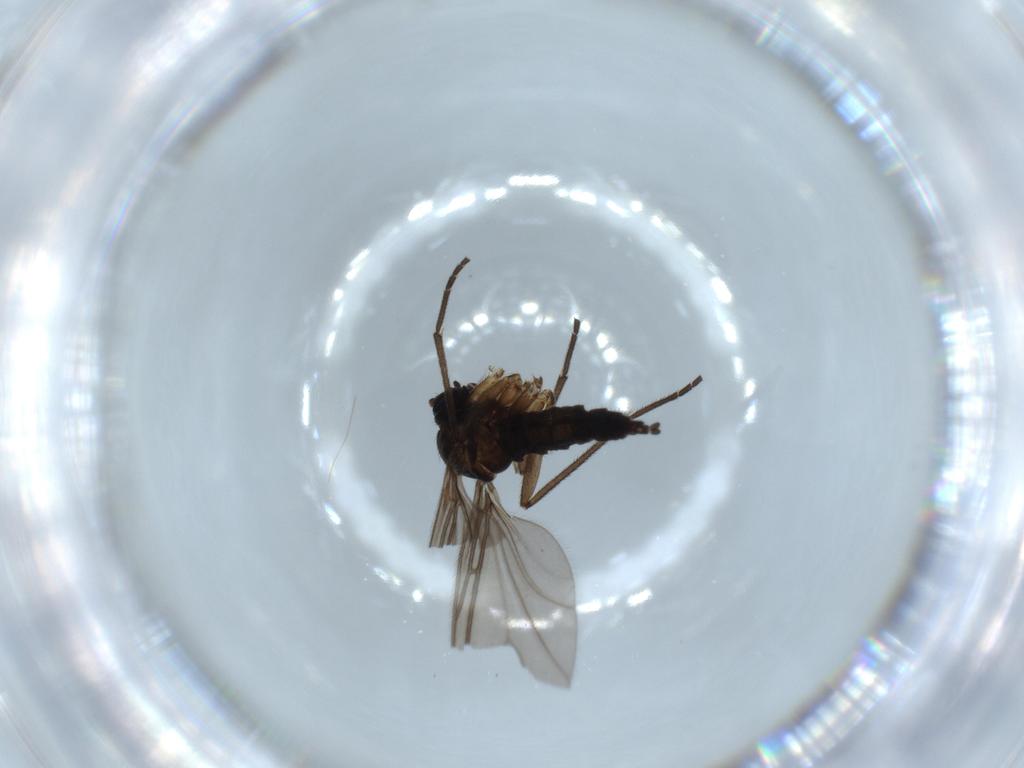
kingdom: Animalia
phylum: Arthropoda
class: Insecta
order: Diptera
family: Sciaridae
